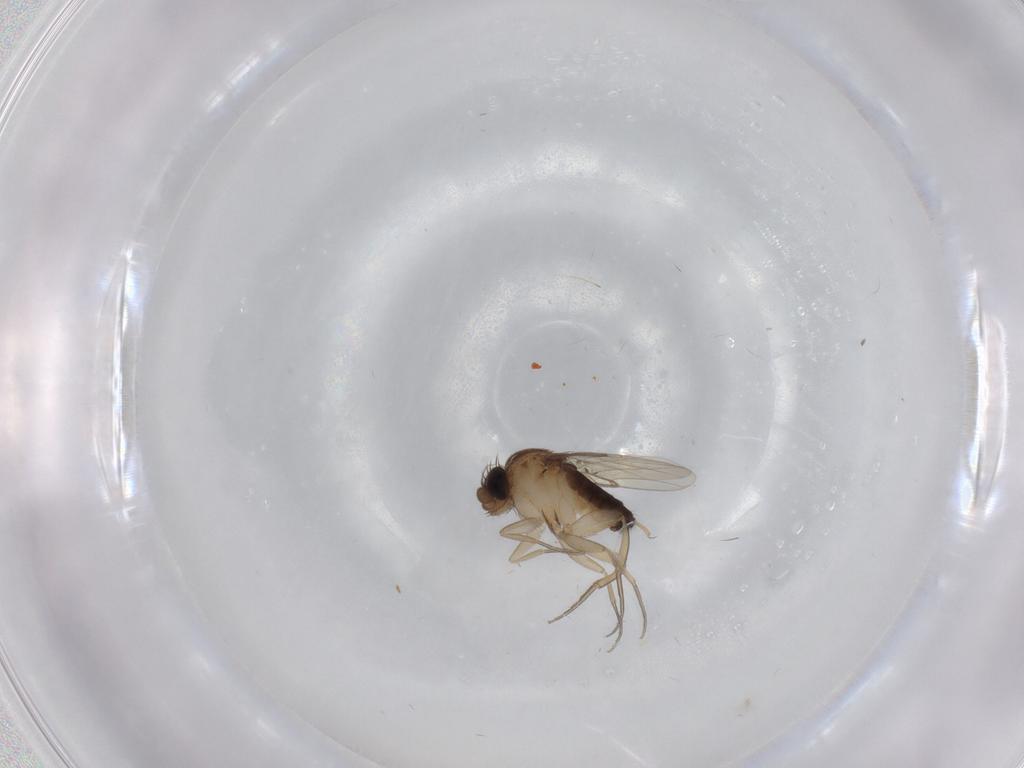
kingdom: Animalia
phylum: Arthropoda
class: Insecta
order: Diptera
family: Phoridae
